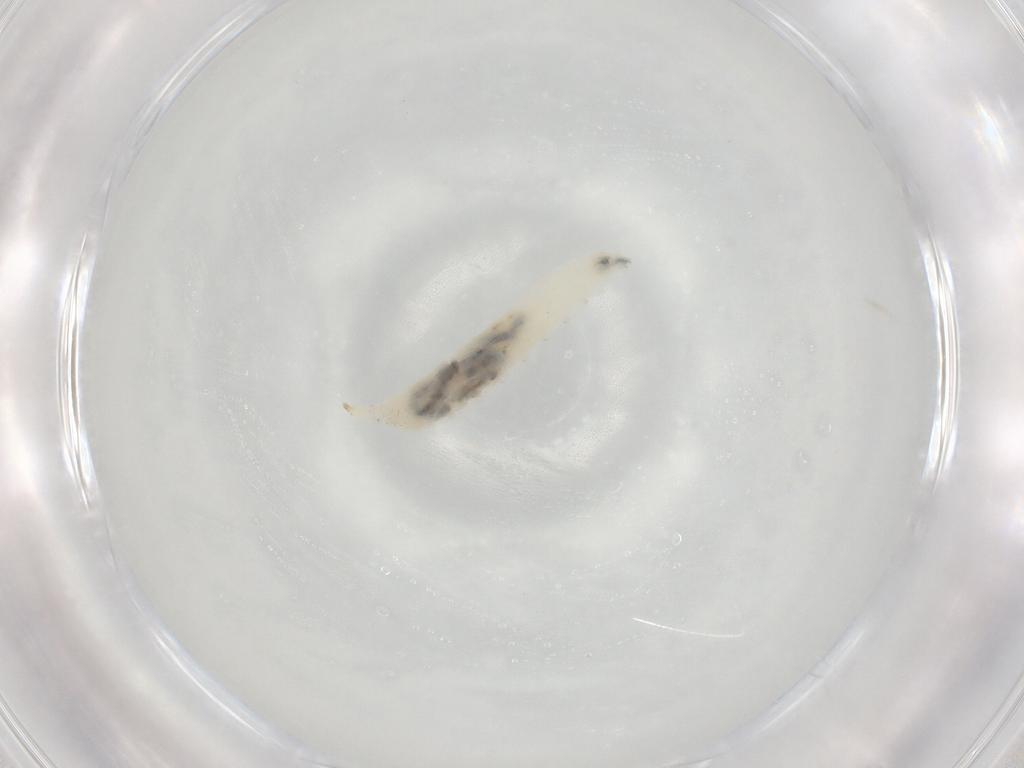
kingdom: Animalia
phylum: Arthropoda
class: Insecta
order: Diptera
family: Drosophilidae
